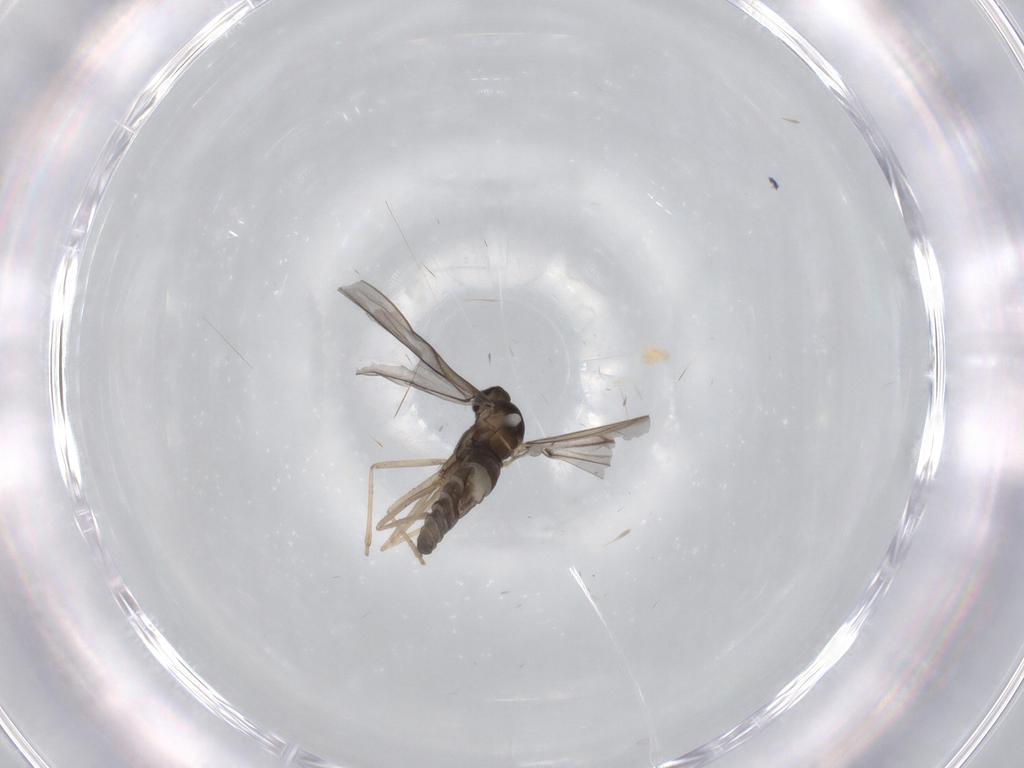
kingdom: Animalia
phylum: Arthropoda
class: Insecta
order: Diptera
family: Sciaridae
